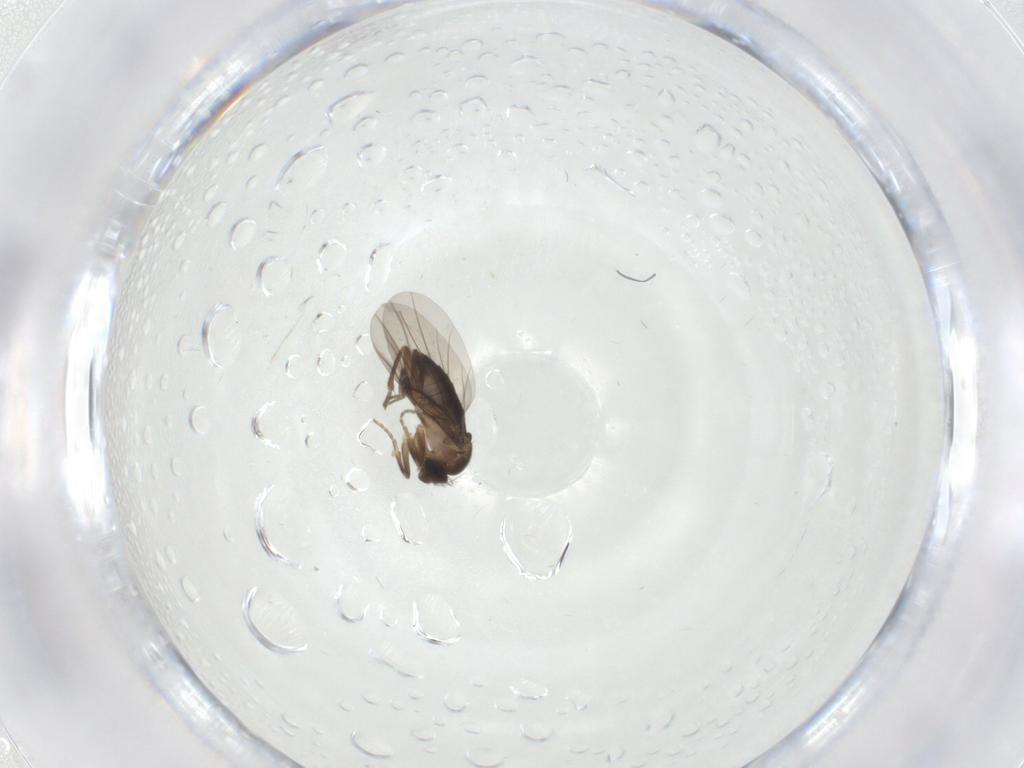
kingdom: Animalia
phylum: Arthropoda
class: Insecta
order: Diptera
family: Phoridae
